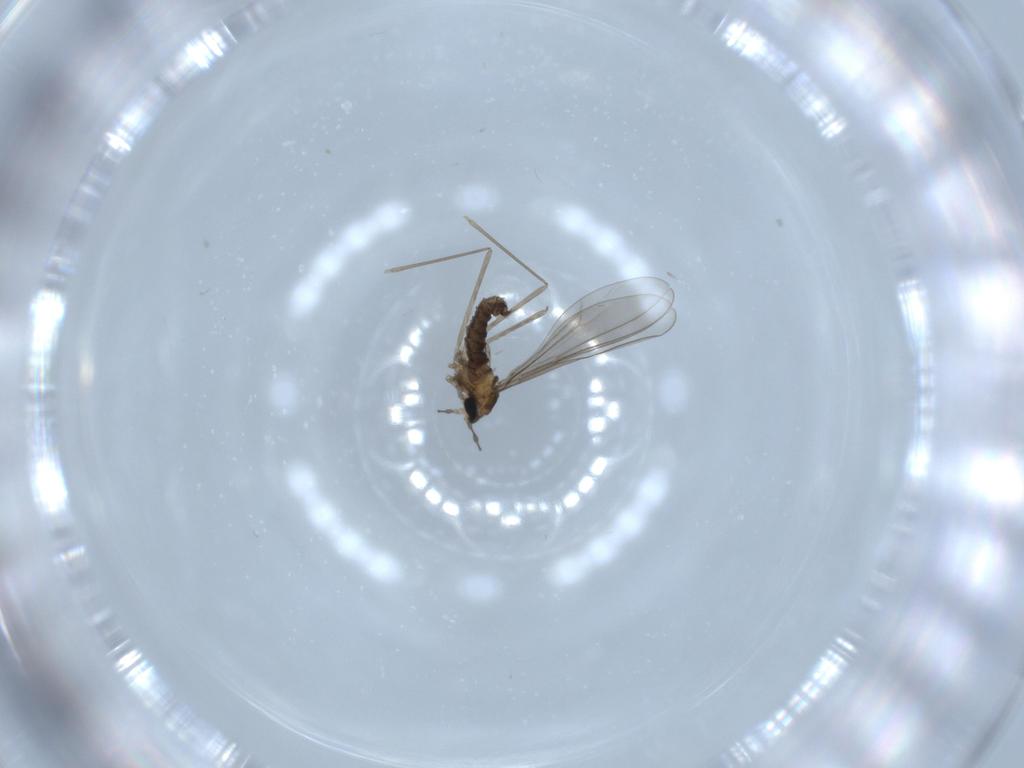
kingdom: Animalia
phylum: Arthropoda
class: Insecta
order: Diptera
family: Cecidomyiidae
